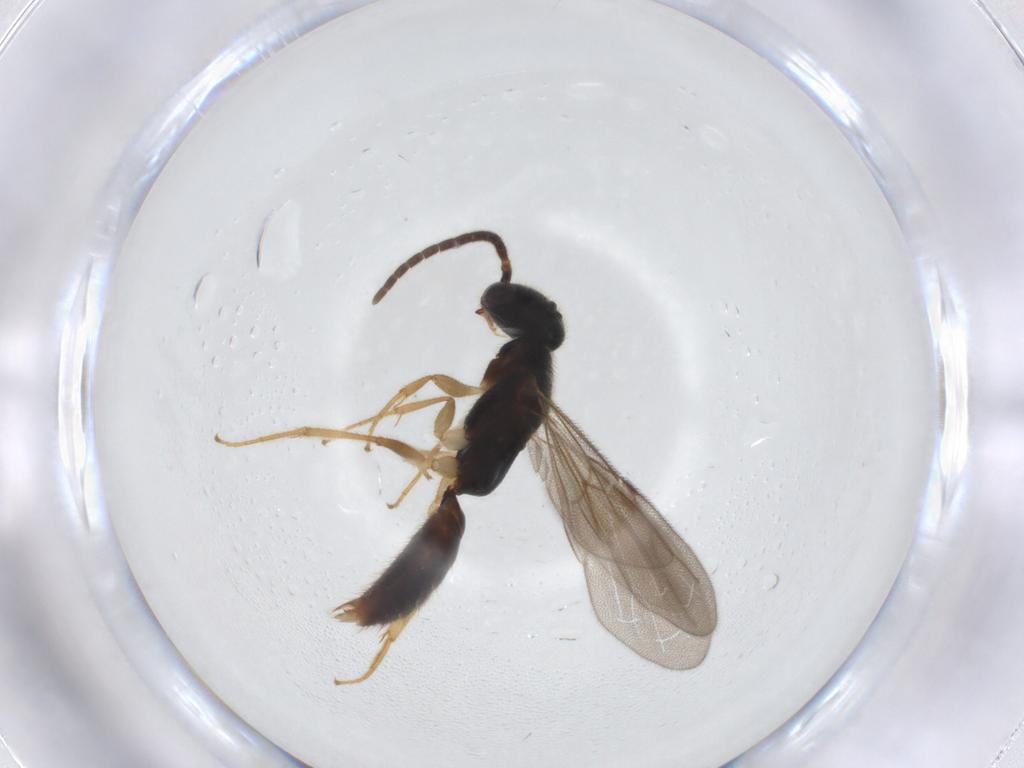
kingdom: Animalia
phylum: Arthropoda
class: Insecta
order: Hymenoptera
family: Bethylidae
